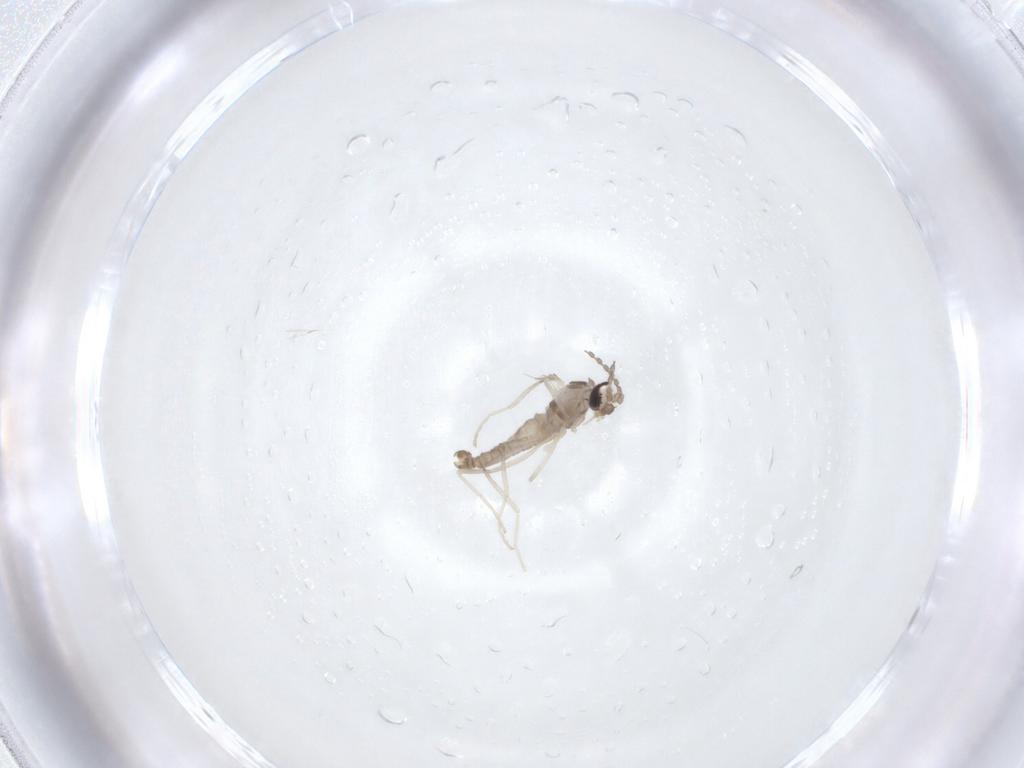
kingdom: Animalia
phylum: Arthropoda
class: Insecta
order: Diptera
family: Cecidomyiidae
